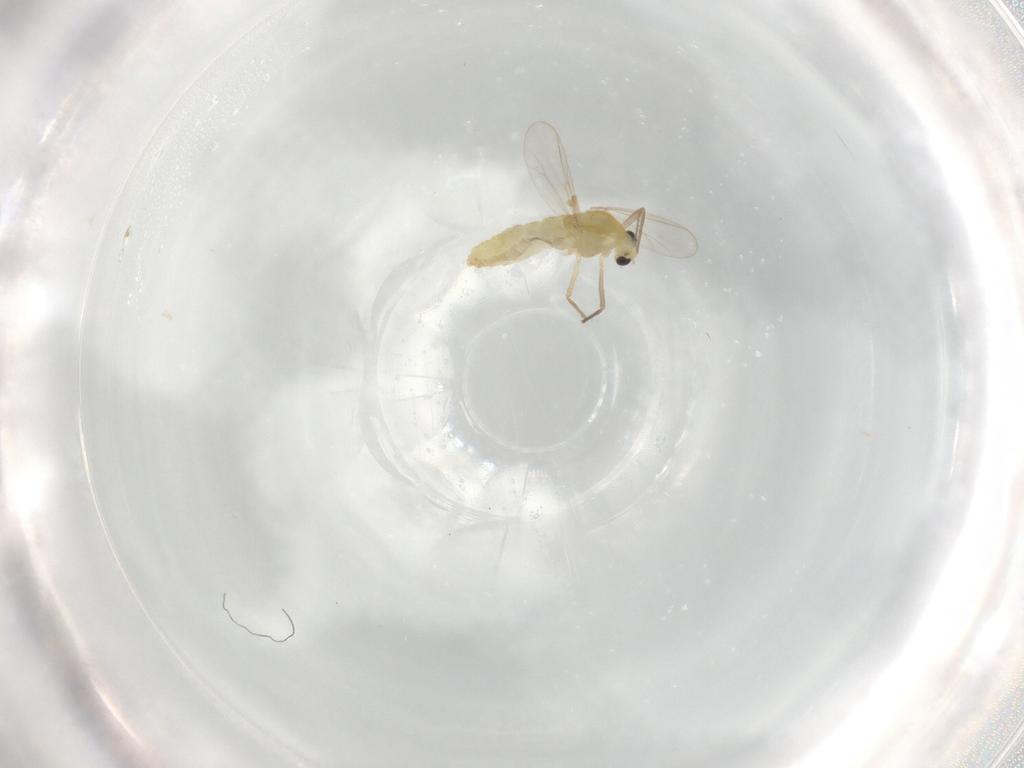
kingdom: Animalia
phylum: Arthropoda
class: Insecta
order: Diptera
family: Chironomidae
